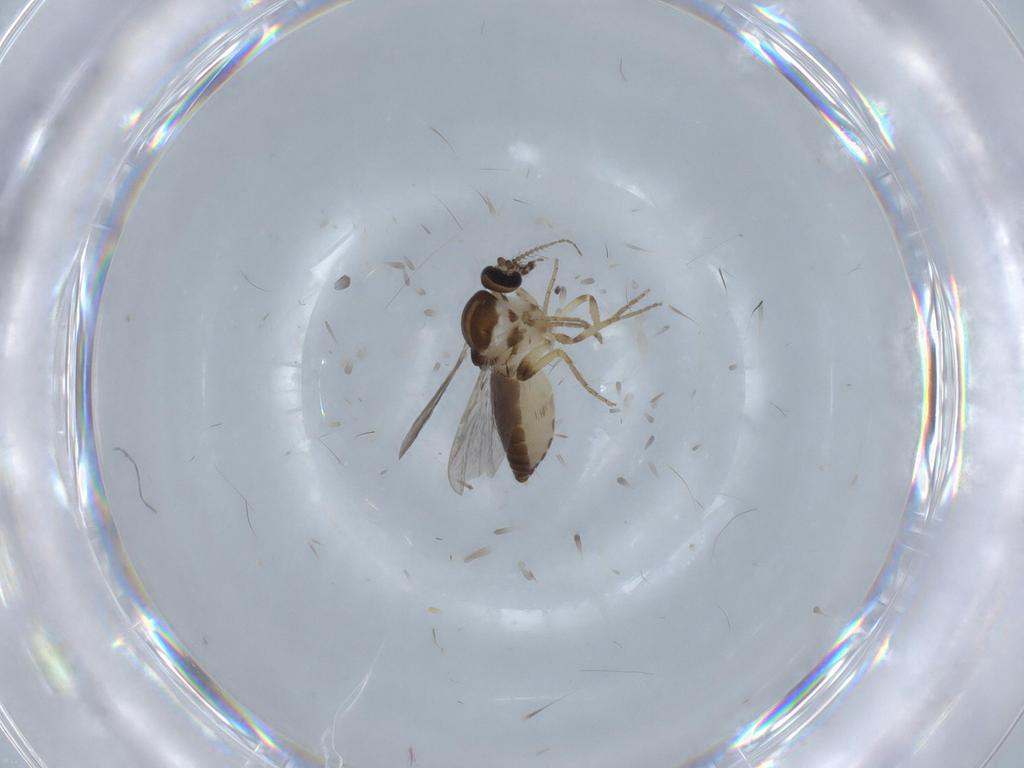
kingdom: Animalia
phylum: Arthropoda
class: Insecta
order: Diptera
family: Ceratopogonidae
